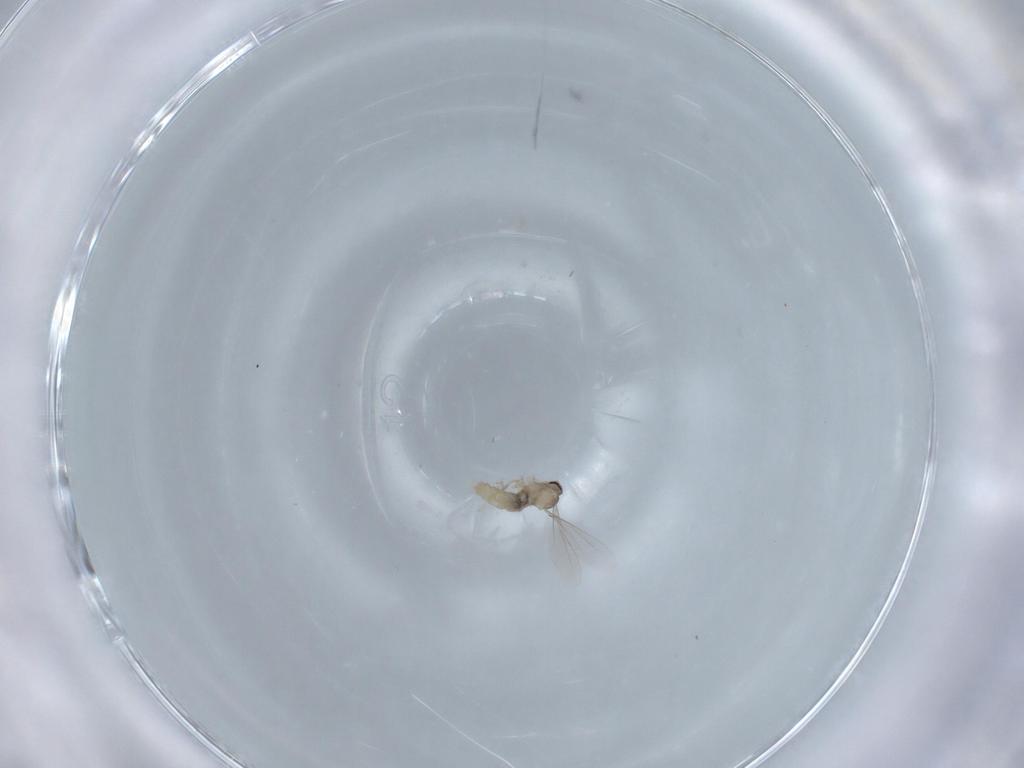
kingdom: Animalia
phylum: Arthropoda
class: Insecta
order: Diptera
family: Cecidomyiidae
